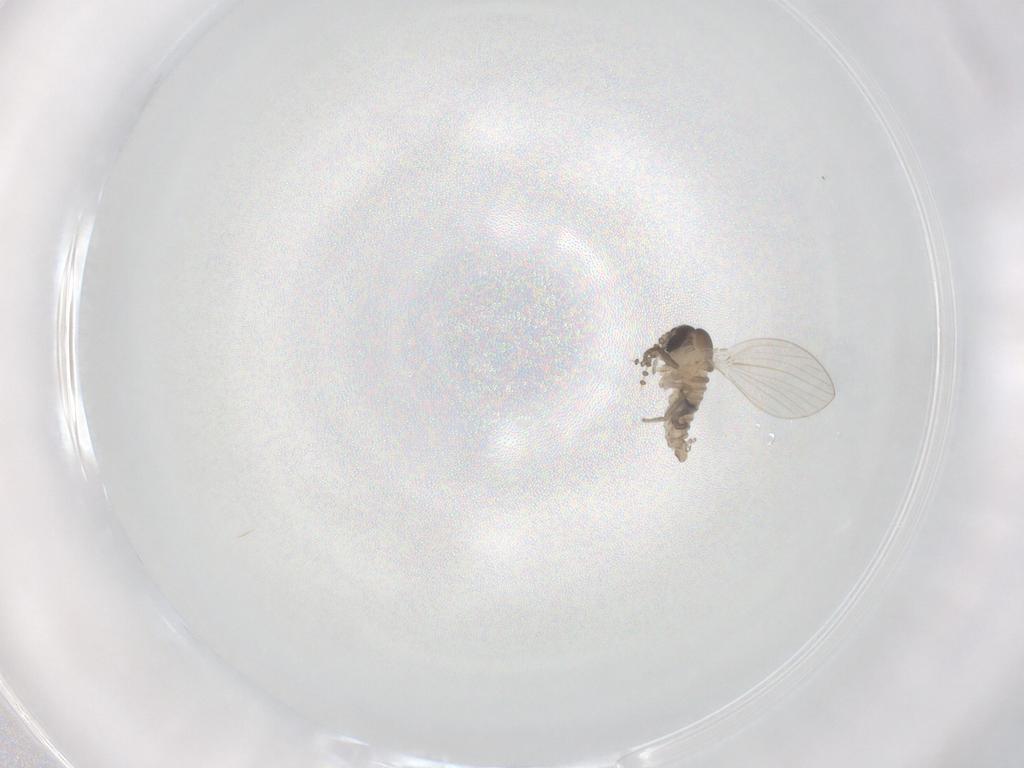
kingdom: Animalia
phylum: Arthropoda
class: Insecta
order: Diptera
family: Psychodidae
